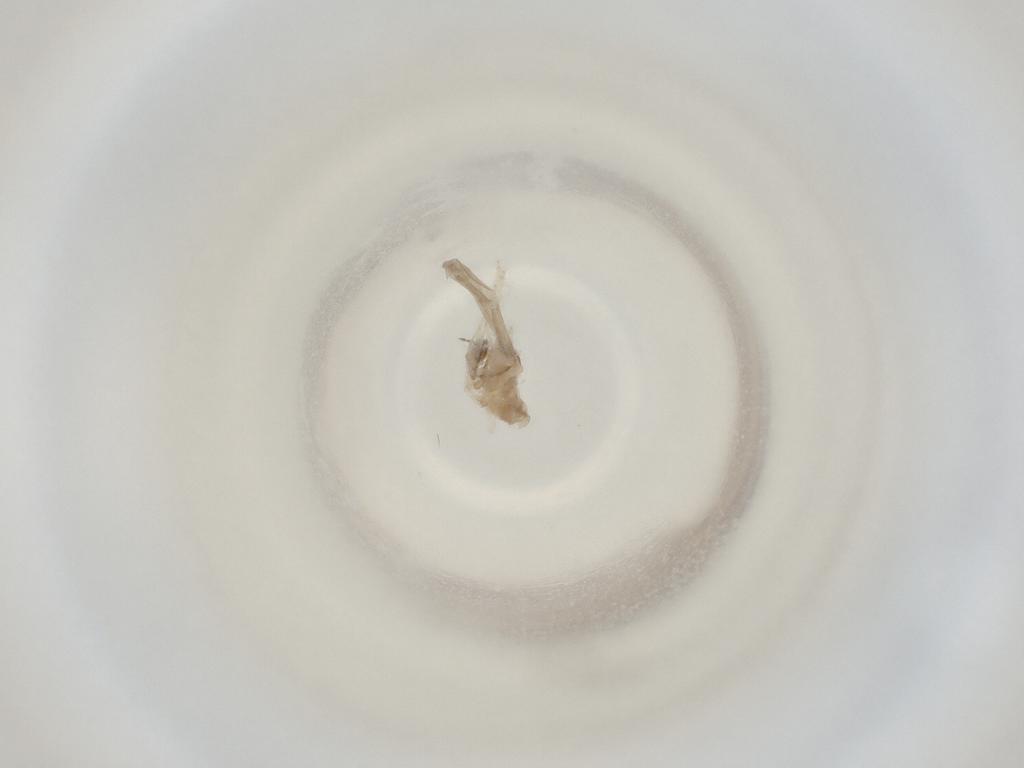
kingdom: Animalia
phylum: Arthropoda
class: Insecta
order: Diptera
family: Cecidomyiidae
